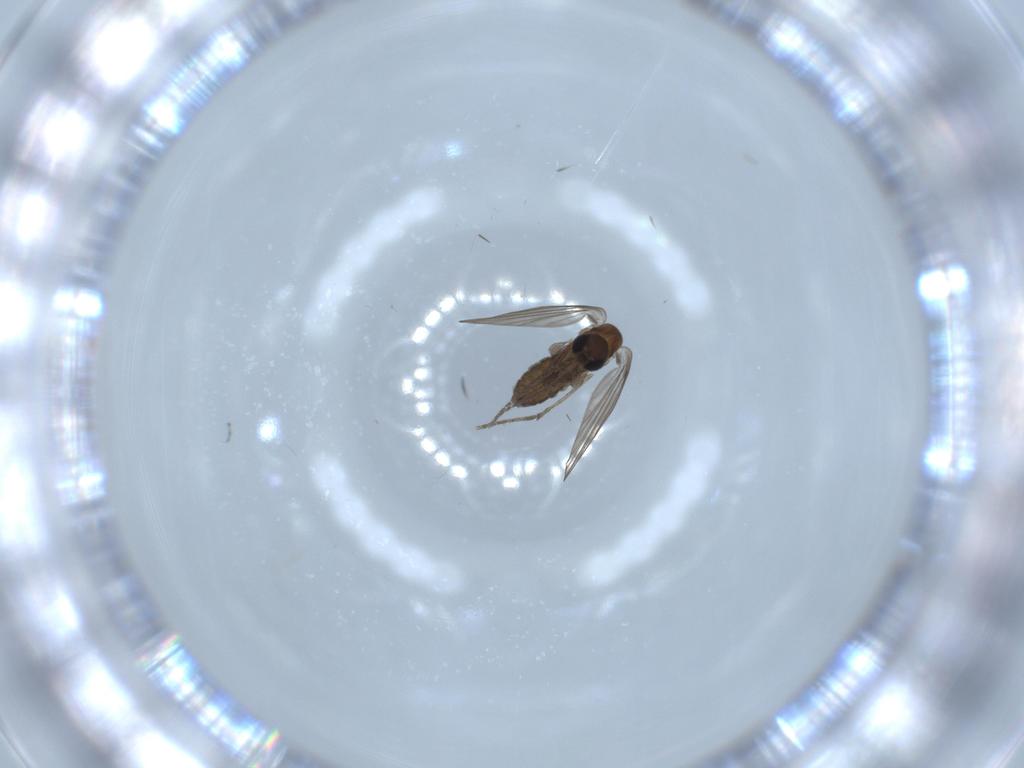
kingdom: Animalia
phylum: Arthropoda
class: Insecta
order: Diptera
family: Psychodidae
